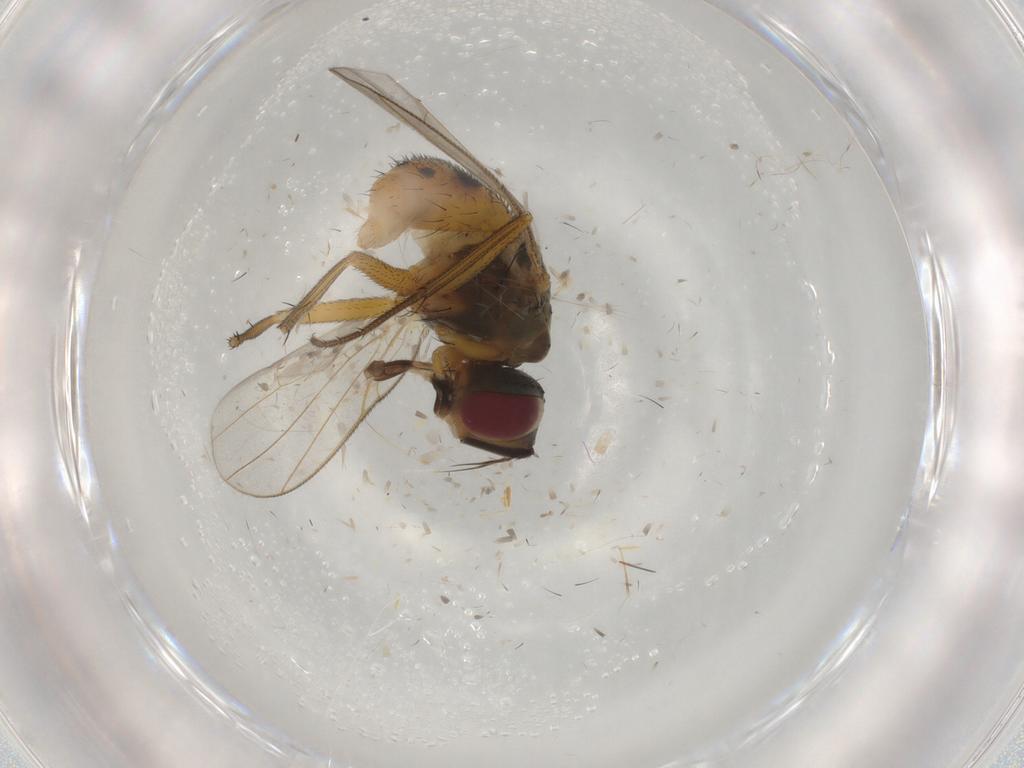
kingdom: Animalia
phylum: Arthropoda
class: Insecta
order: Diptera
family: Muscidae
